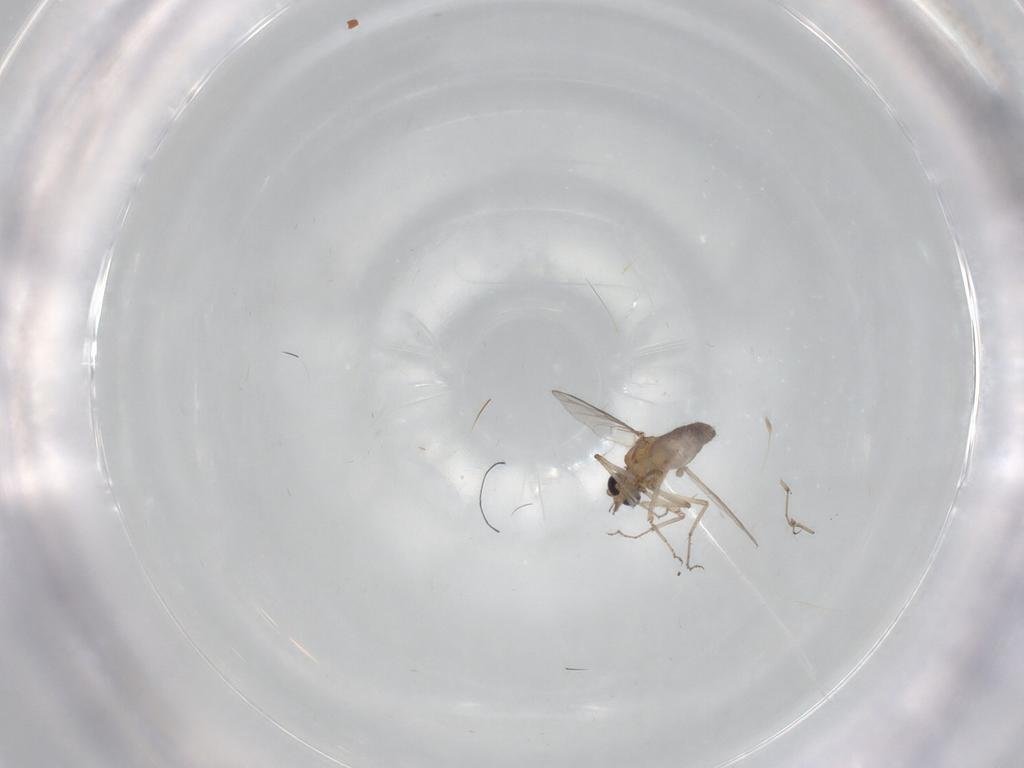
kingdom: Animalia
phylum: Arthropoda
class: Insecta
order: Diptera
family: Ceratopogonidae
